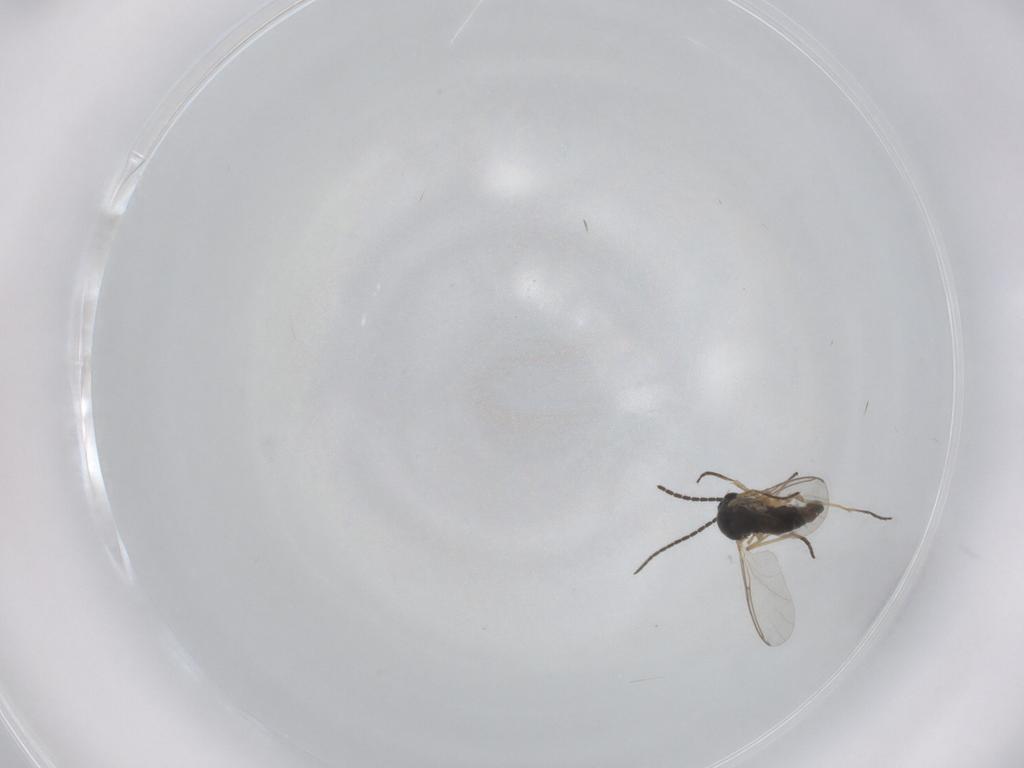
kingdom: Animalia
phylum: Arthropoda
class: Insecta
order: Diptera
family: Sciaridae
